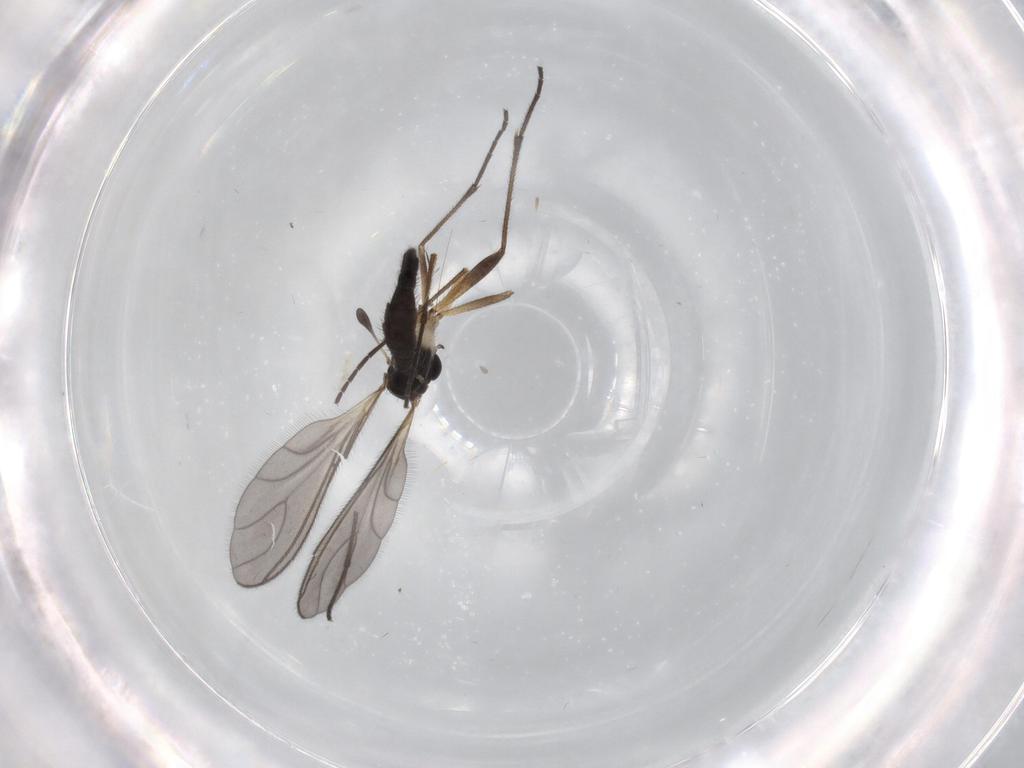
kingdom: Animalia
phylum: Arthropoda
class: Insecta
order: Diptera
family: Sciaridae
